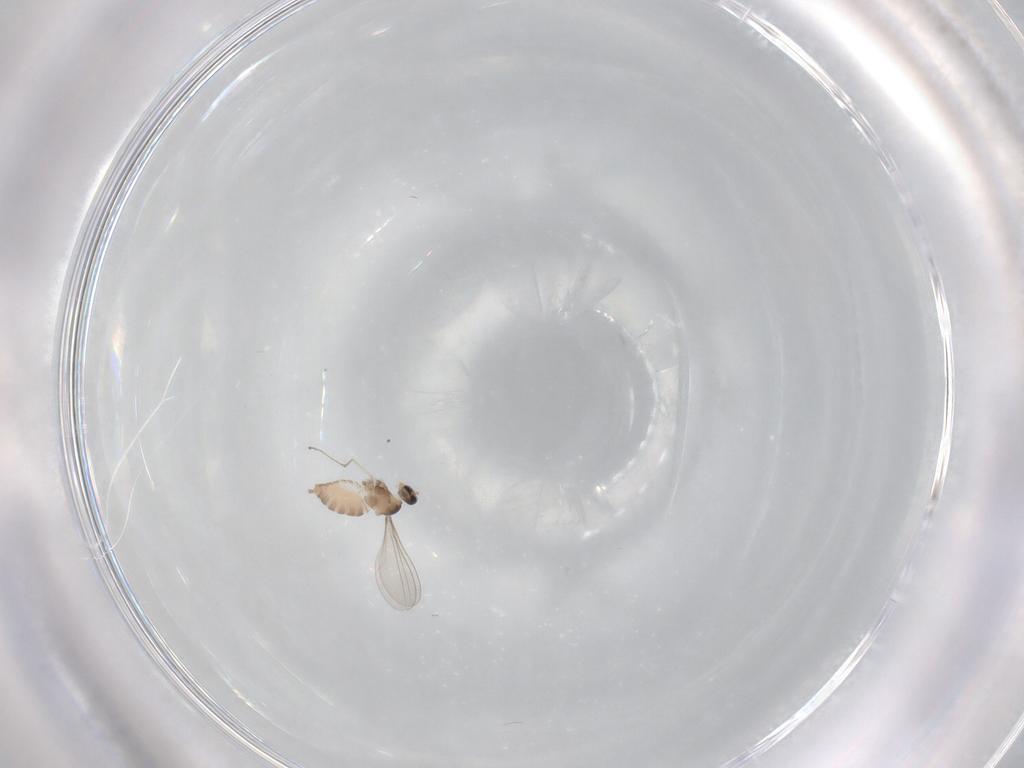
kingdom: Animalia
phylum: Arthropoda
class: Insecta
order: Diptera
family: Cecidomyiidae
